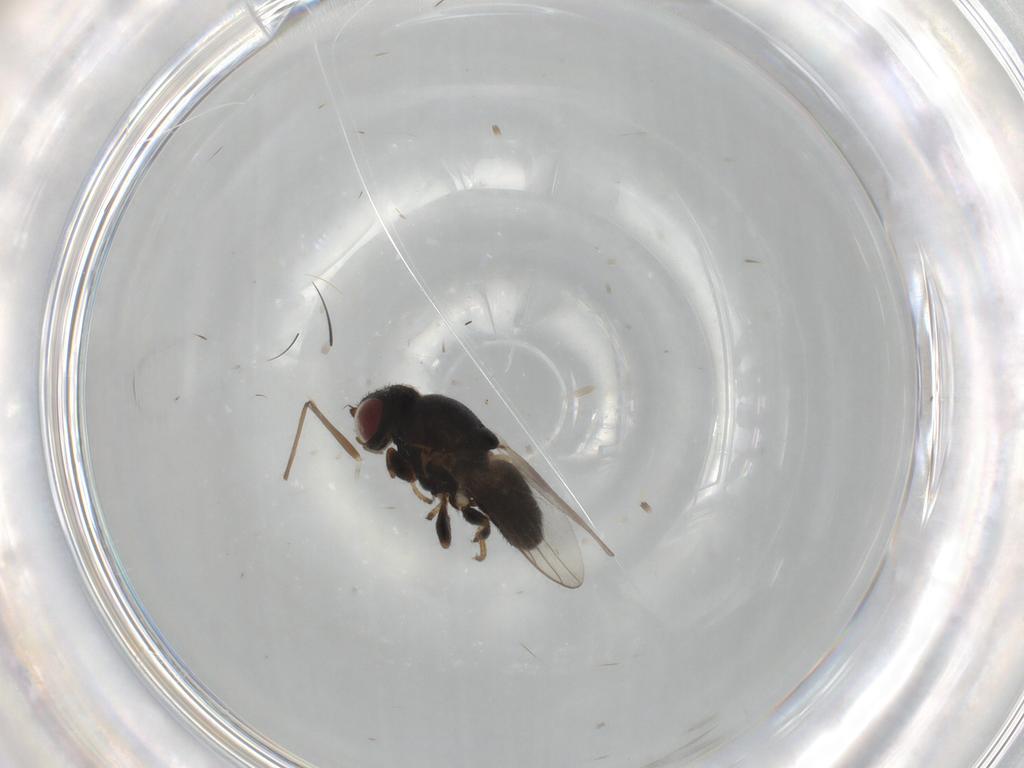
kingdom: Animalia
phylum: Arthropoda
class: Insecta
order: Diptera
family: Chloropidae
